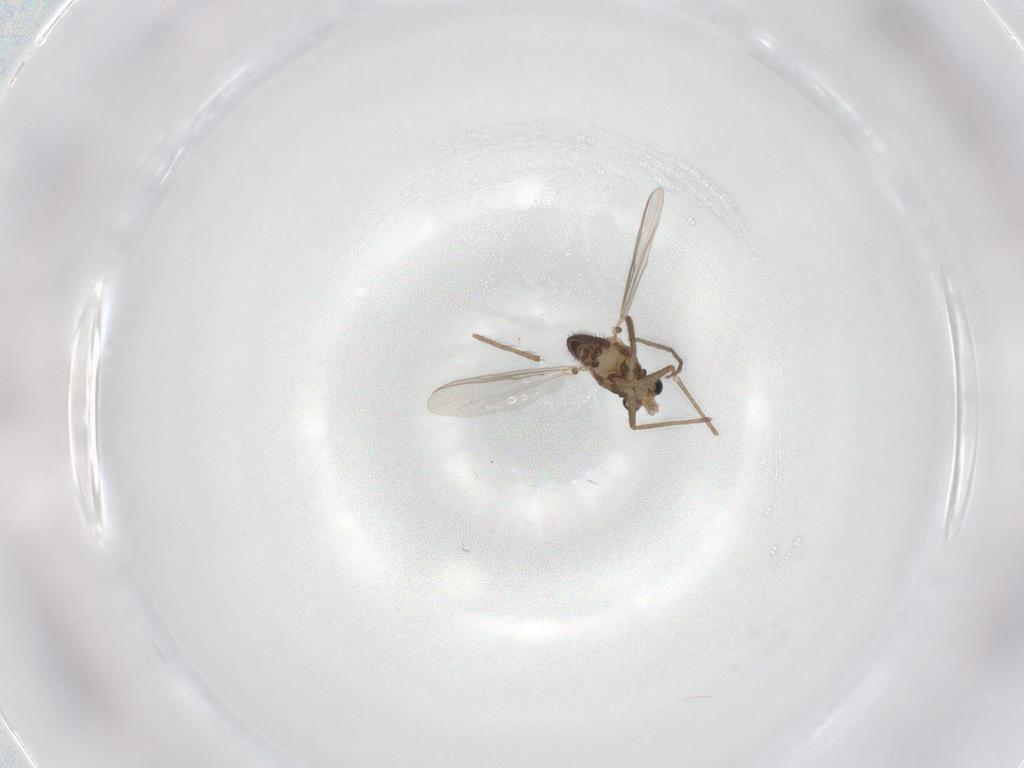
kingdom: Animalia
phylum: Arthropoda
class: Insecta
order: Diptera
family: Chironomidae
